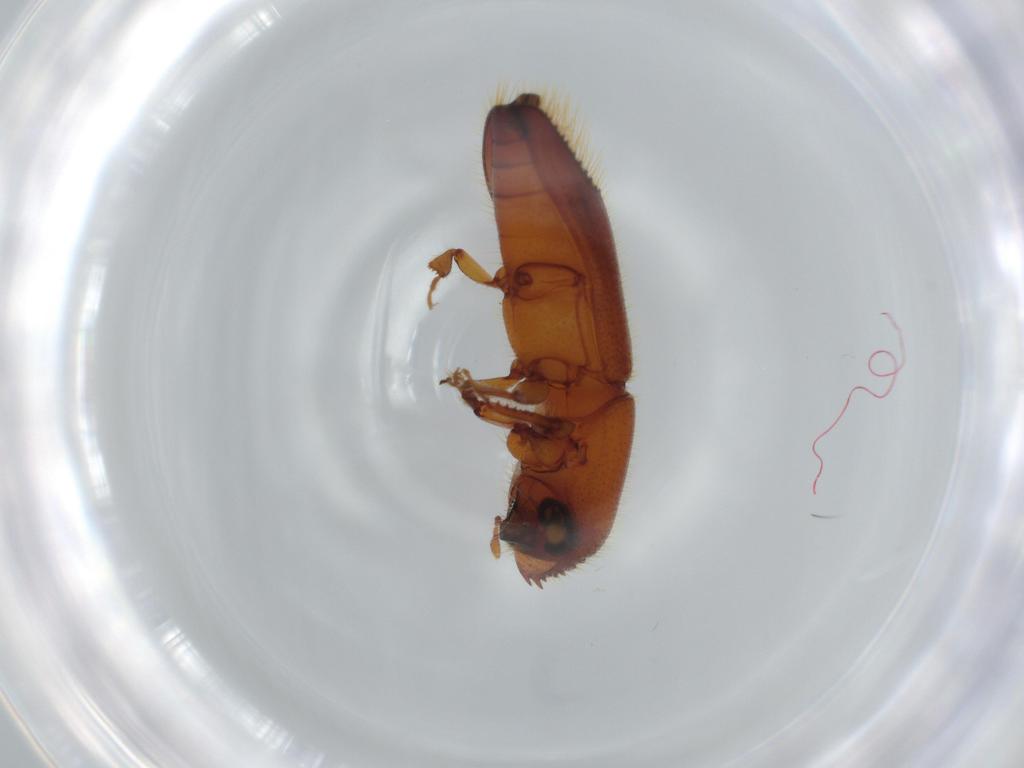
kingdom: Animalia
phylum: Arthropoda
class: Insecta
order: Coleoptera
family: Curculionidae
